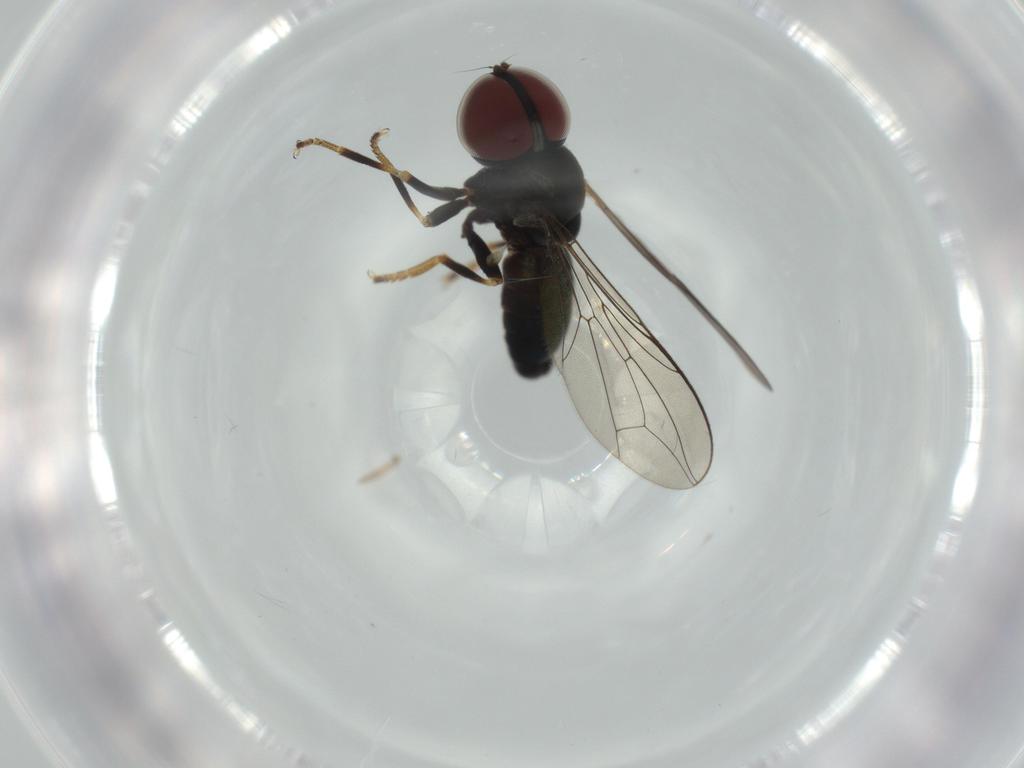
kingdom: Animalia
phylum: Arthropoda
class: Insecta
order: Diptera
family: Pipunculidae
